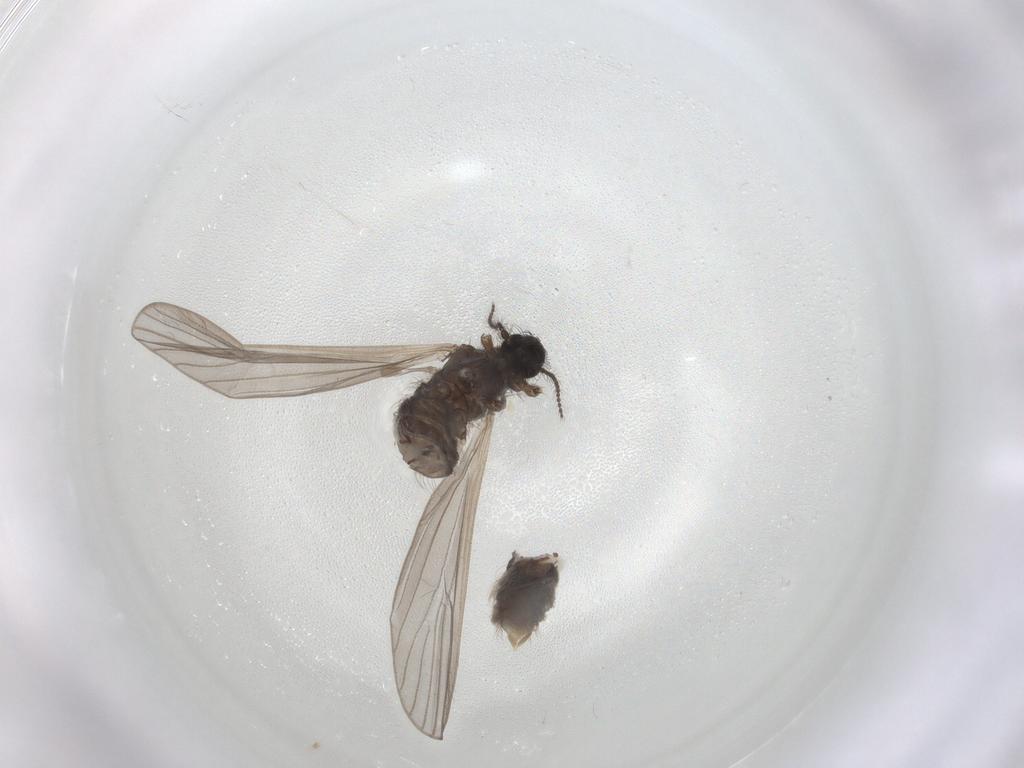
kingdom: Animalia
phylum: Arthropoda
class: Insecta
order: Diptera
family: Limoniidae
